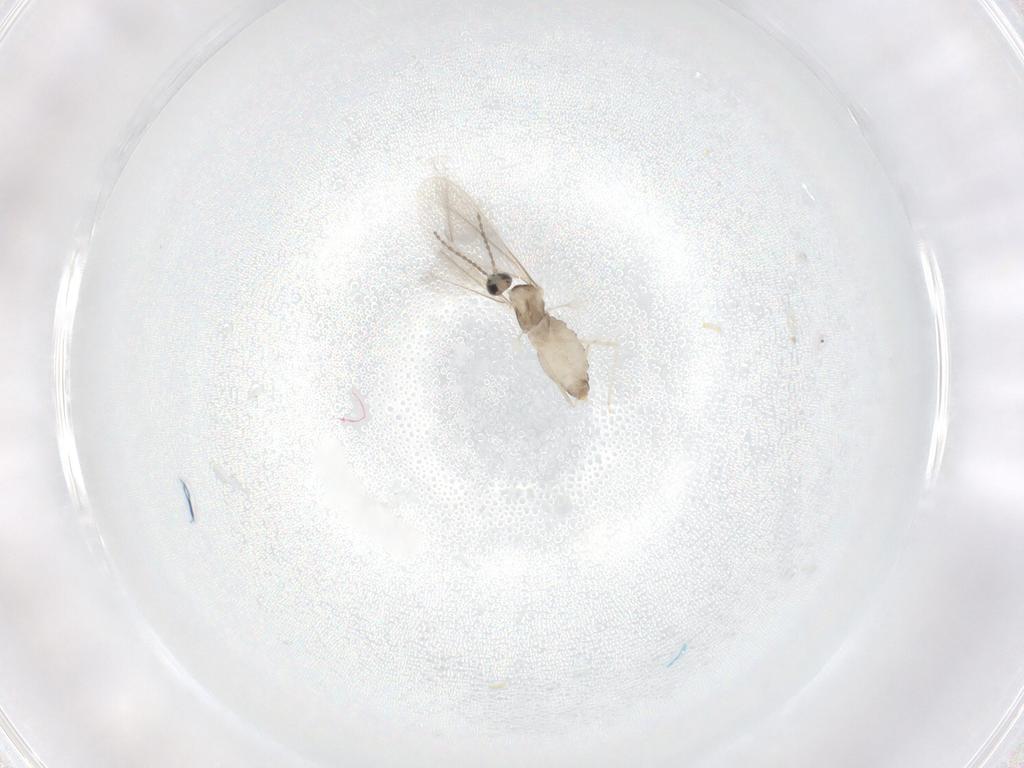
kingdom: Animalia
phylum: Arthropoda
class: Insecta
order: Diptera
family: Cecidomyiidae
